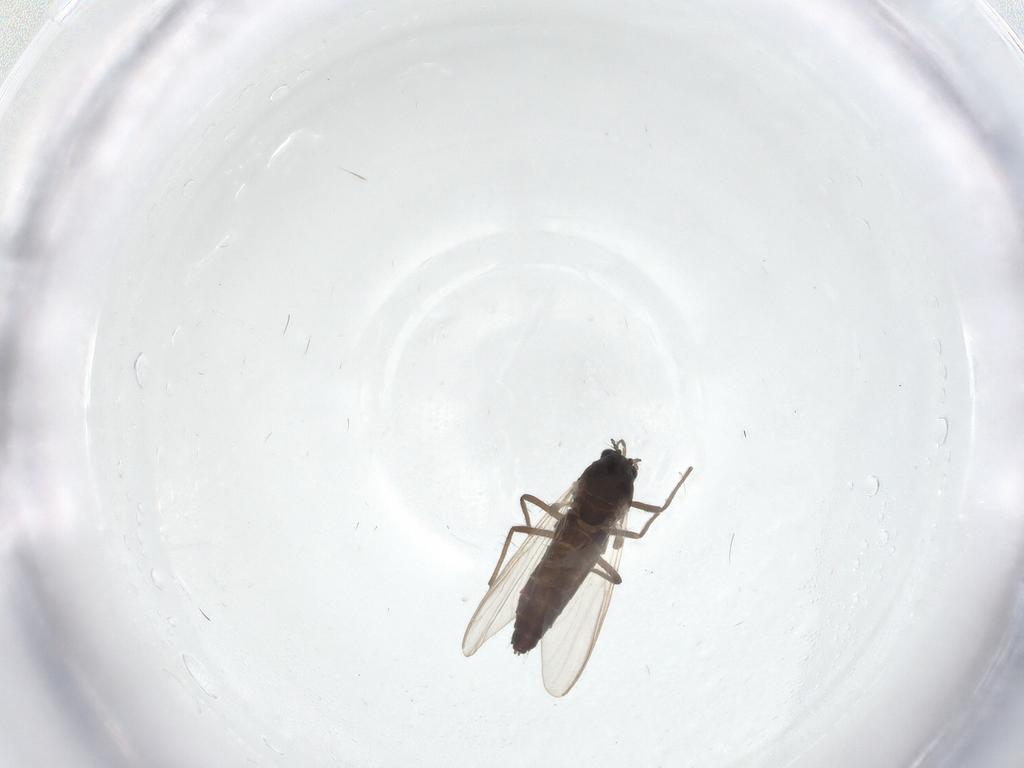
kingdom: Animalia
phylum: Arthropoda
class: Insecta
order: Diptera
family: Chironomidae
